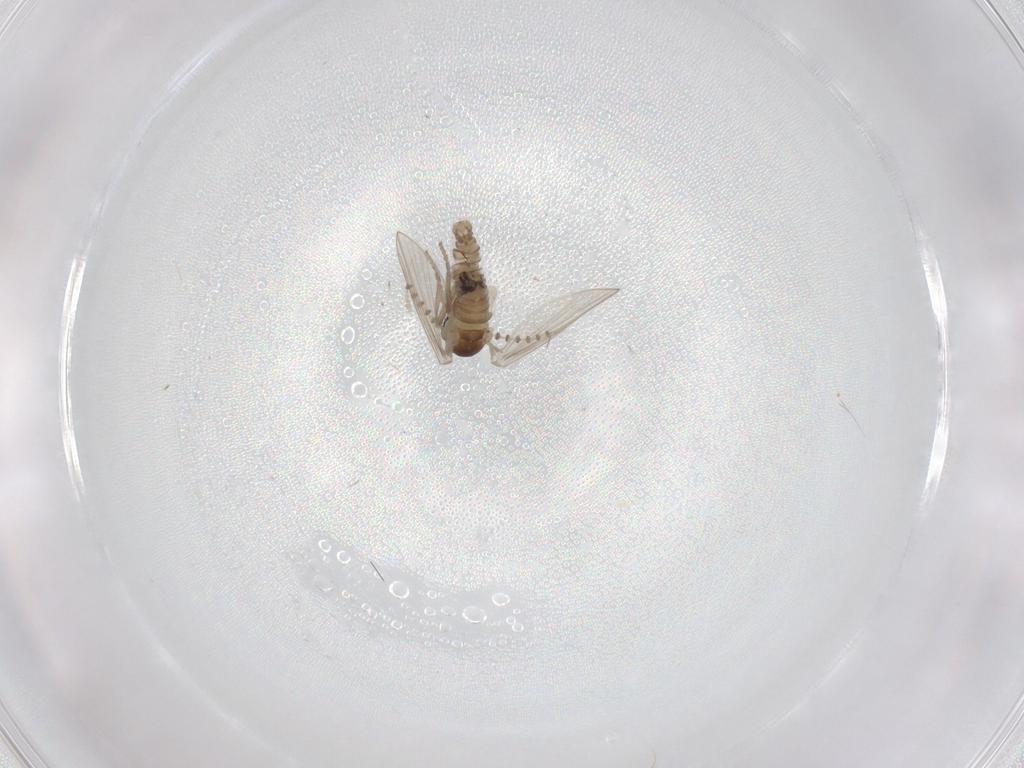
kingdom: Animalia
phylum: Arthropoda
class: Insecta
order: Diptera
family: Psychodidae
